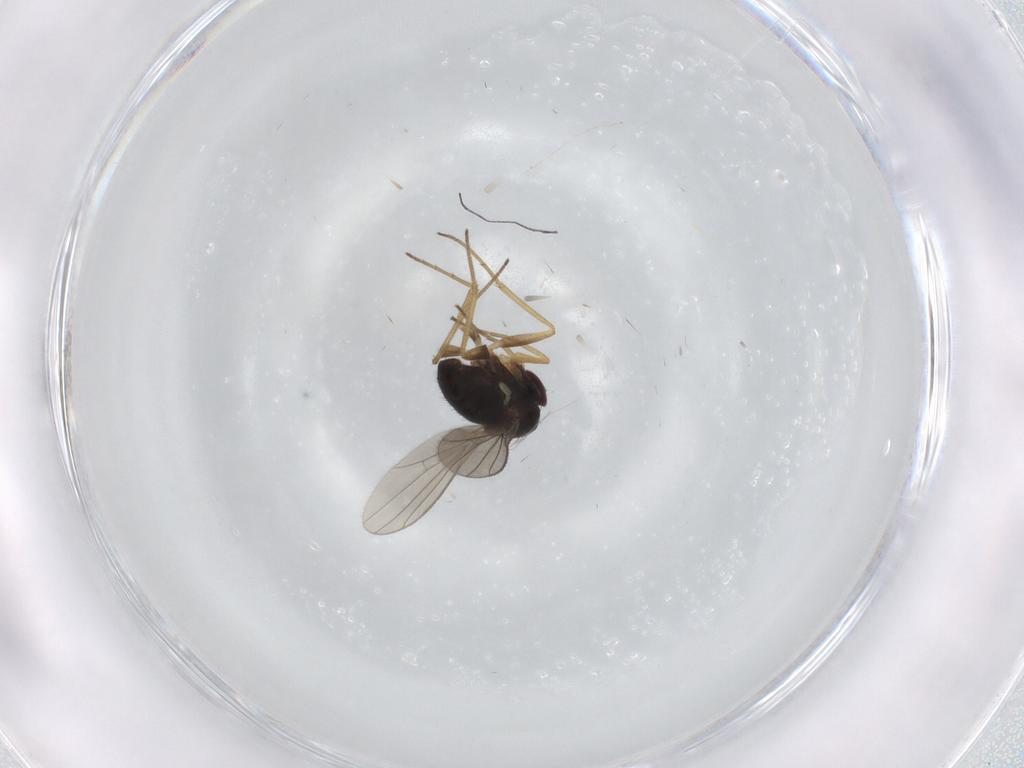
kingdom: Animalia
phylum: Arthropoda
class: Insecta
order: Diptera
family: Dolichopodidae
